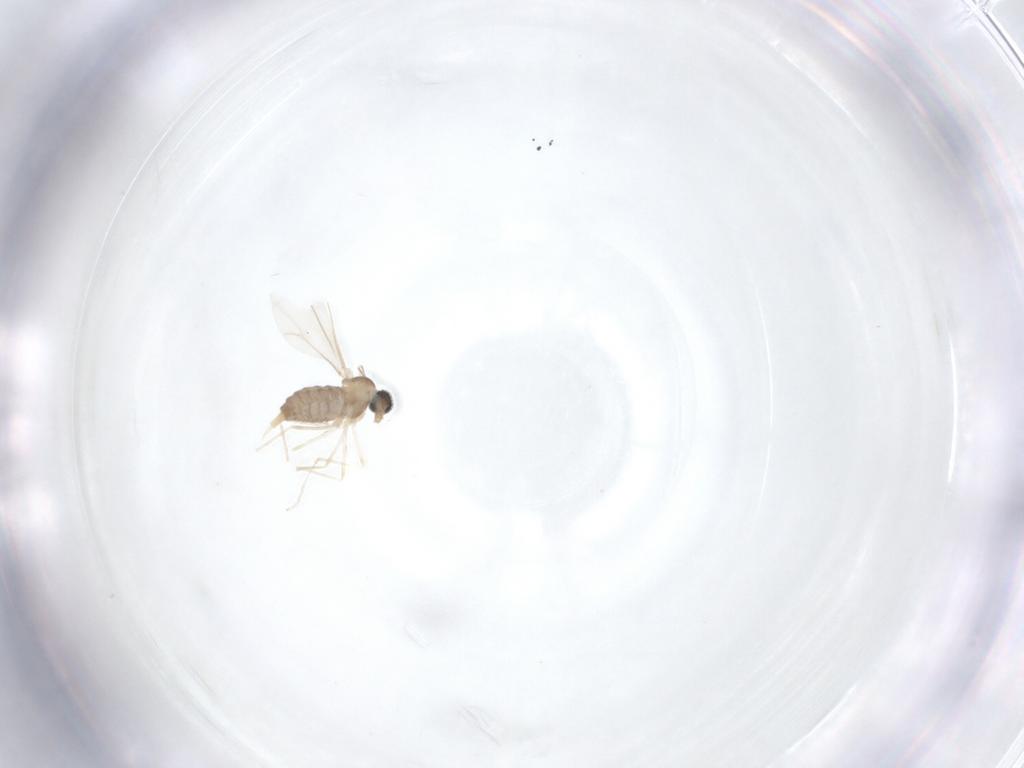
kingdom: Animalia
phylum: Arthropoda
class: Insecta
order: Diptera
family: Cecidomyiidae
